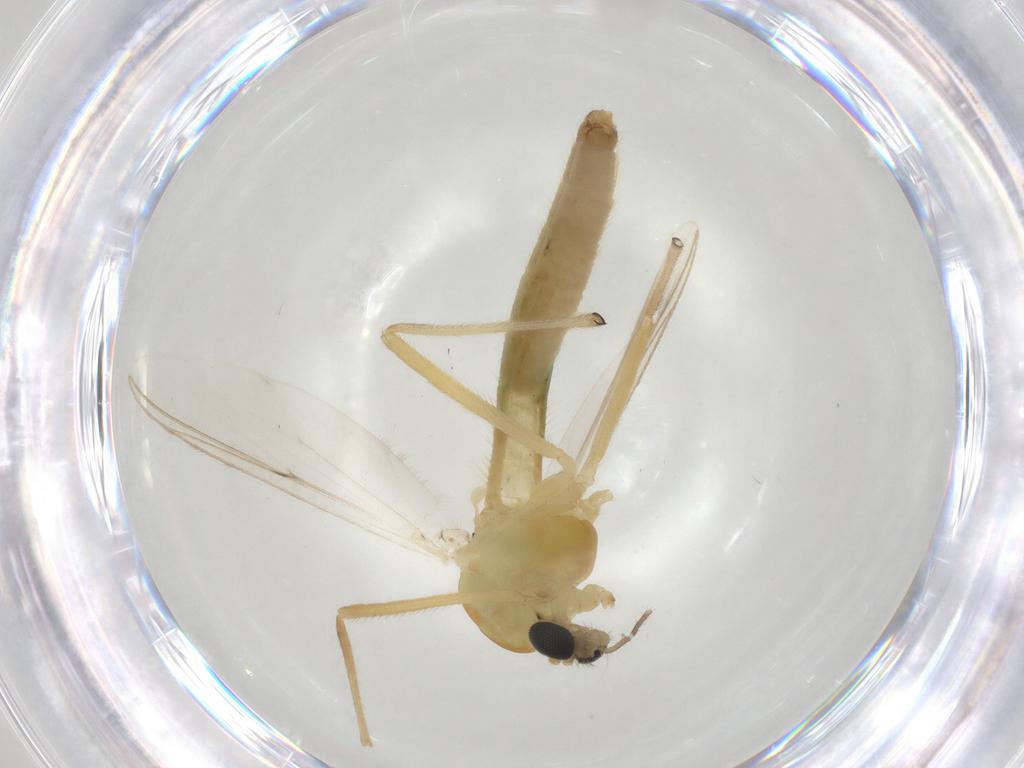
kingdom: Animalia
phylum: Arthropoda
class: Insecta
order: Diptera
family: Chironomidae
